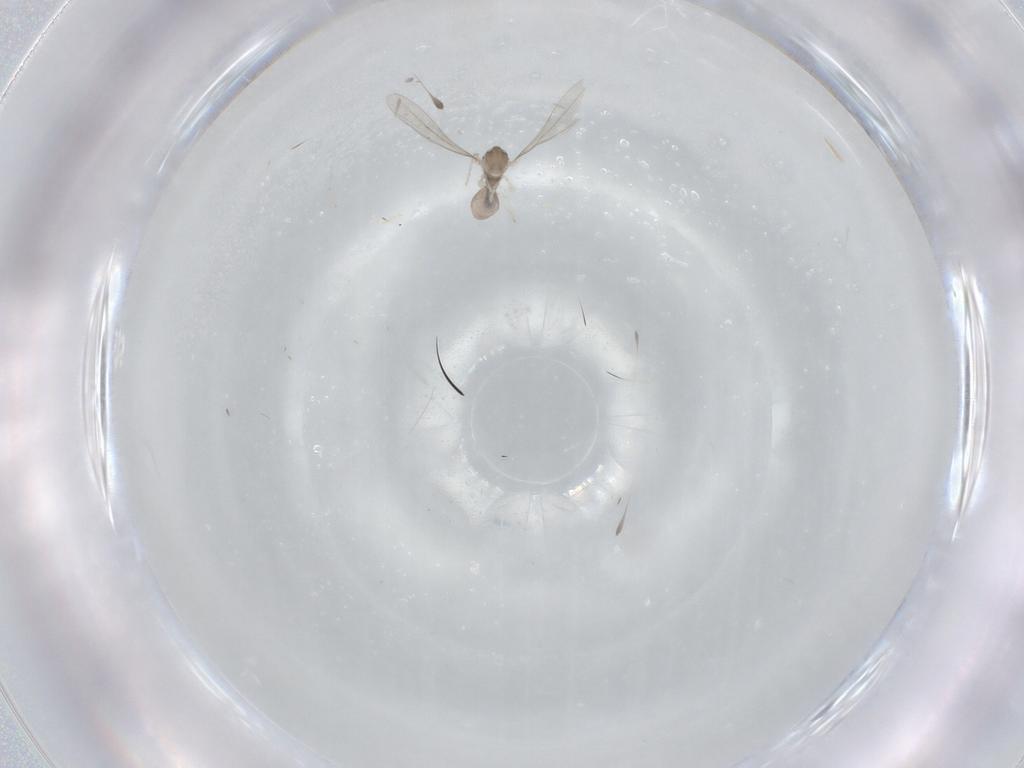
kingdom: Animalia
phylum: Arthropoda
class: Insecta
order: Diptera
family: Cecidomyiidae
